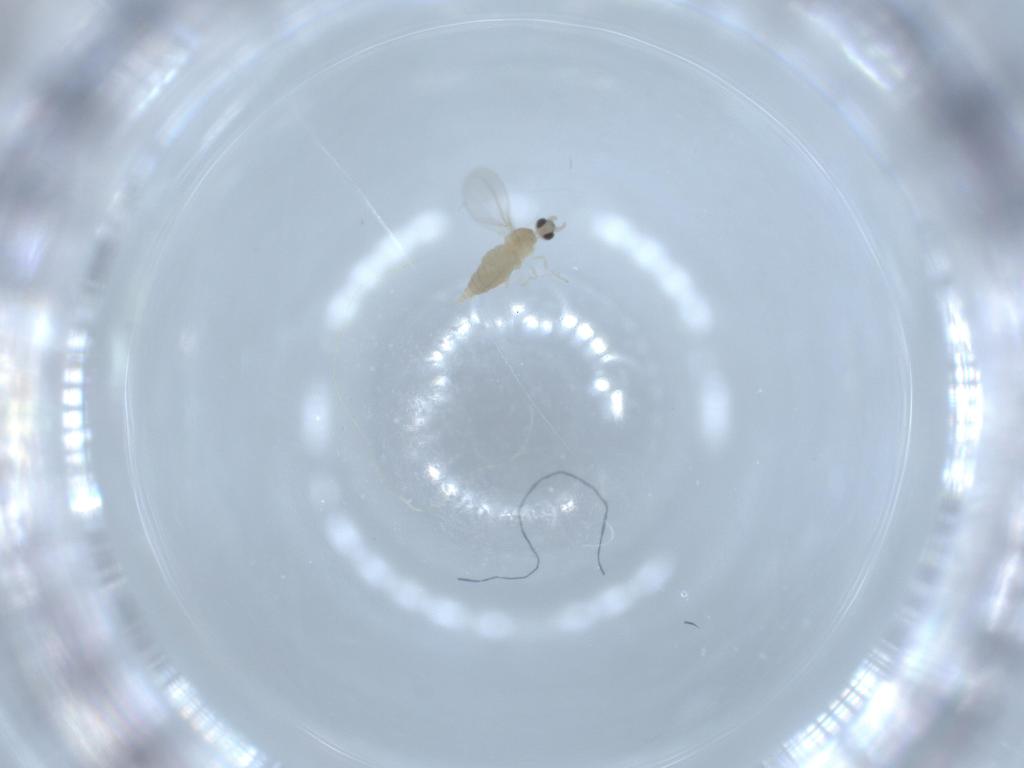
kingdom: Animalia
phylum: Arthropoda
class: Insecta
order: Diptera
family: Cecidomyiidae
